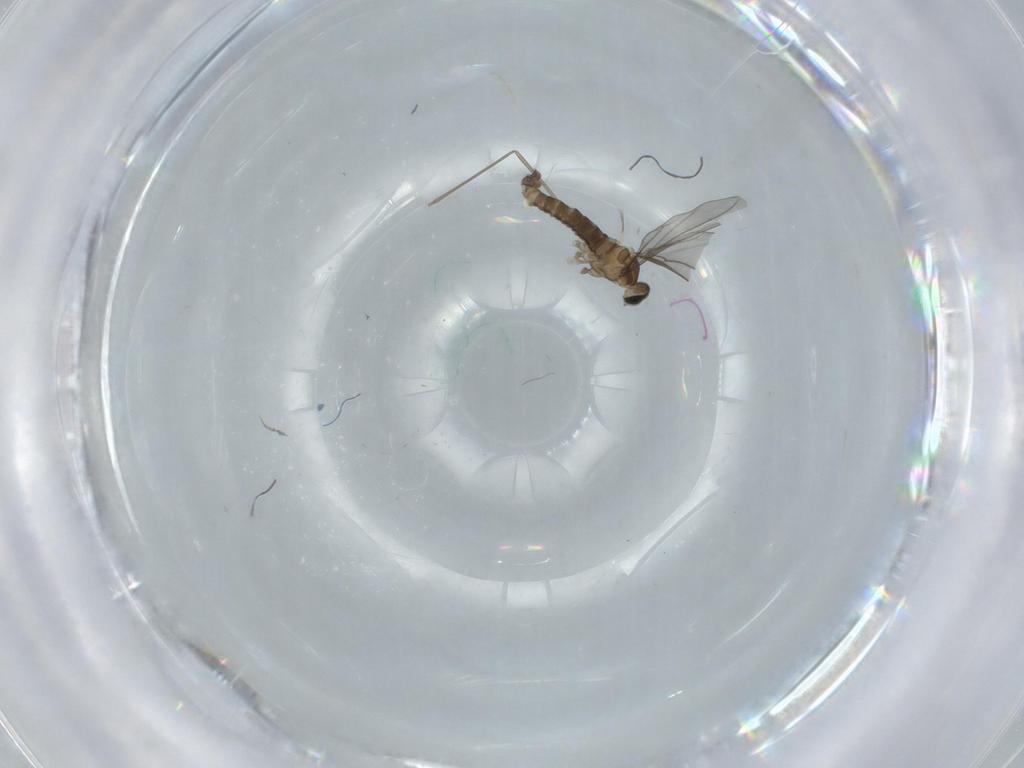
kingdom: Animalia
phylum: Arthropoda
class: Insecta
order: Diptera
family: Cecidomyiidae
